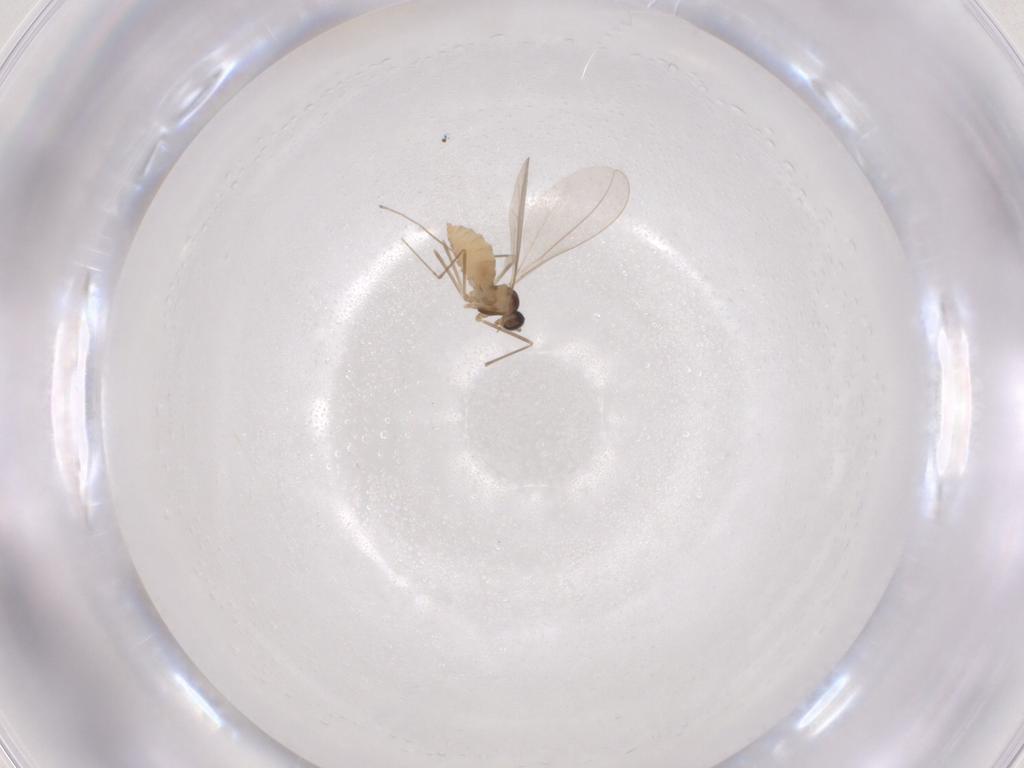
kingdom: Animalia
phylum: Arthropoda
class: Insecta
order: Diptera
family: Cecidomyiidae
